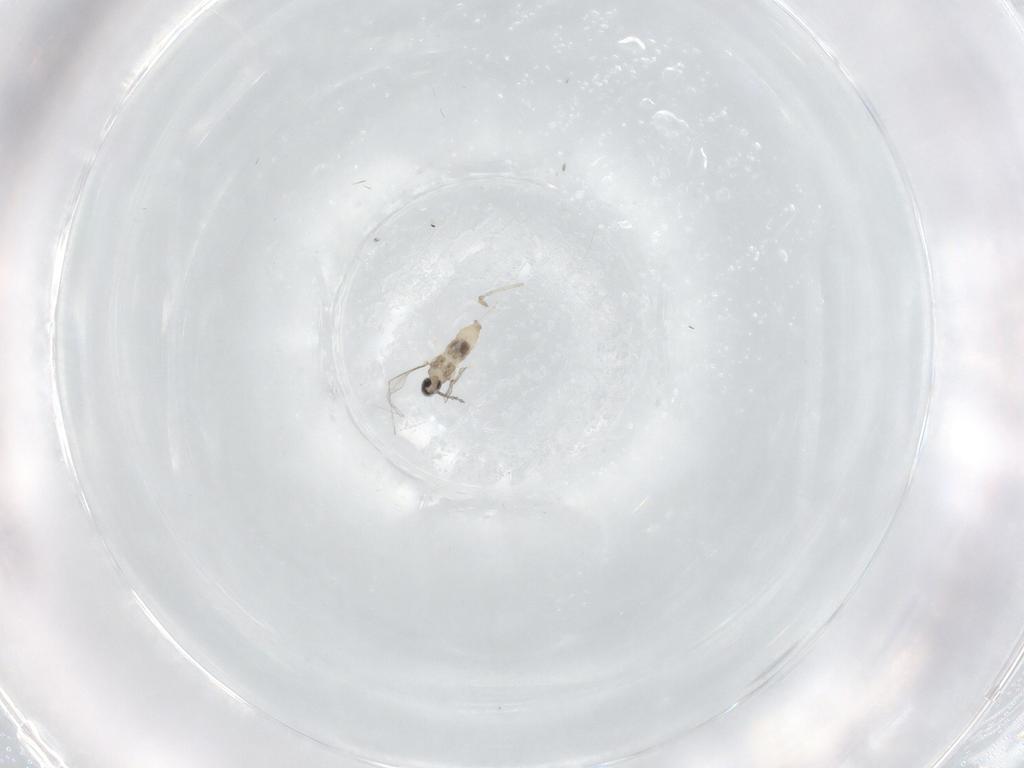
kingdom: Animalia
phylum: Arthropoda
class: Insecta
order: Diptera
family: Cecidomyiidae
